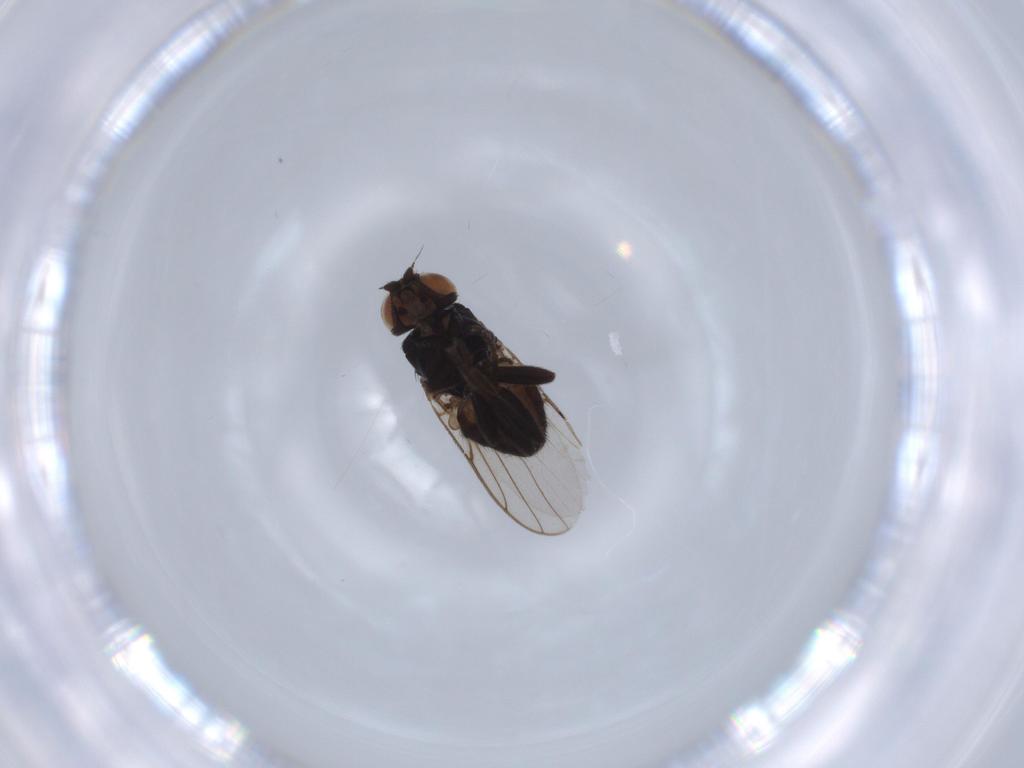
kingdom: Animalia
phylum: Arthropoda
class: Insecta
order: Diptera
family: Chloropidae
